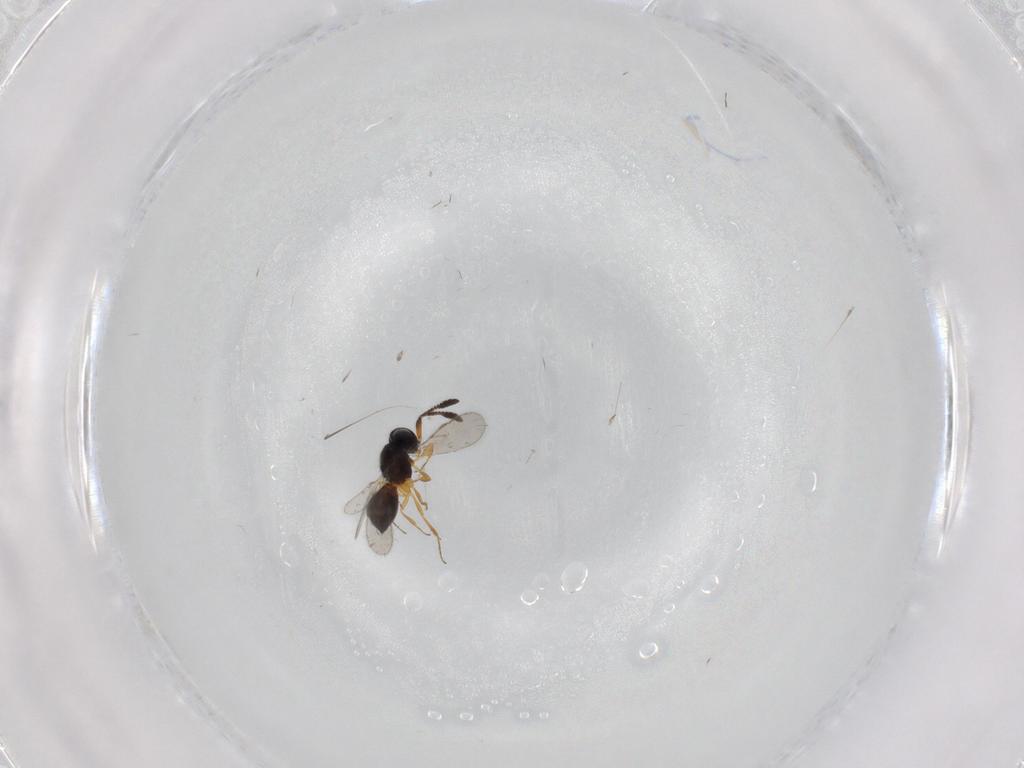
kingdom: Animalia
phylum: Arthropoda
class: Insecta
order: Hymenoptera
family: Scelionidae
